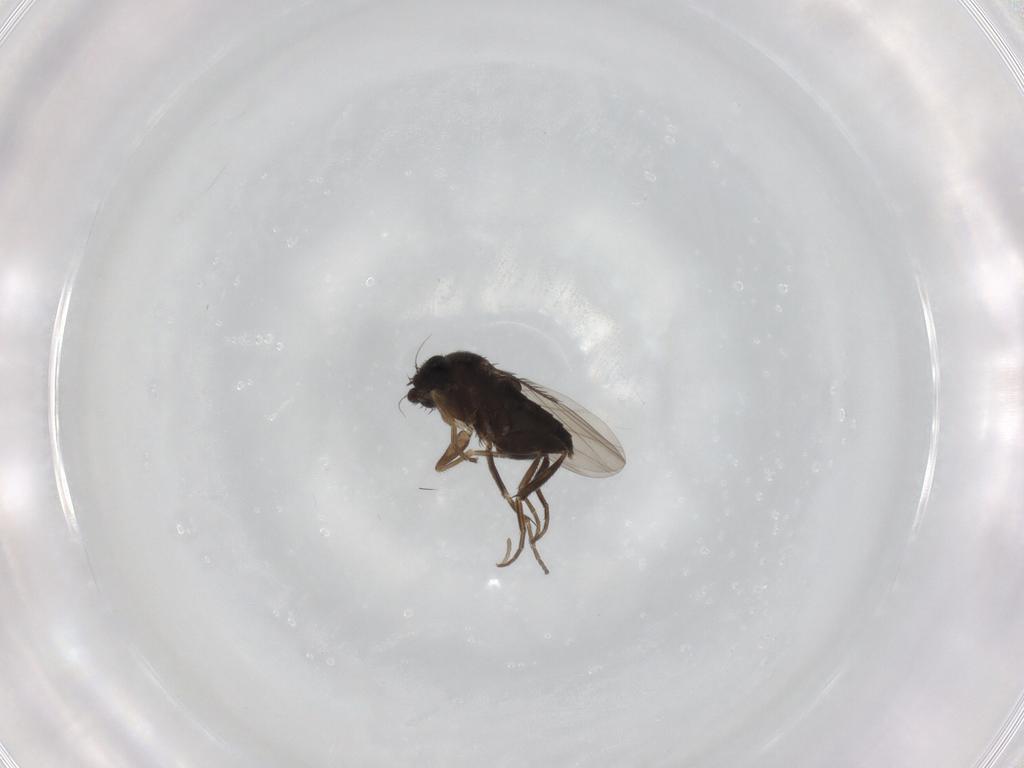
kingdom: Animalia
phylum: Arthropoda
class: Insecta
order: Diptera
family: Phoridae
